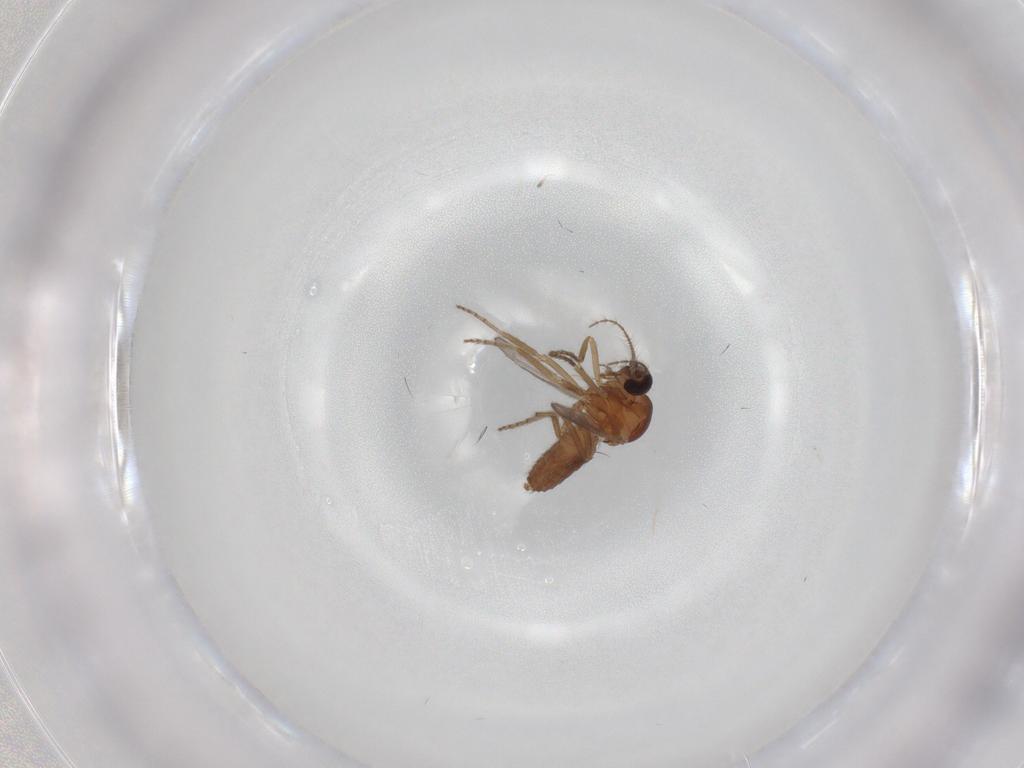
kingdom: Animalia
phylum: Arthropoda
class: Insecta
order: Diptera
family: Ceratopogonidae
